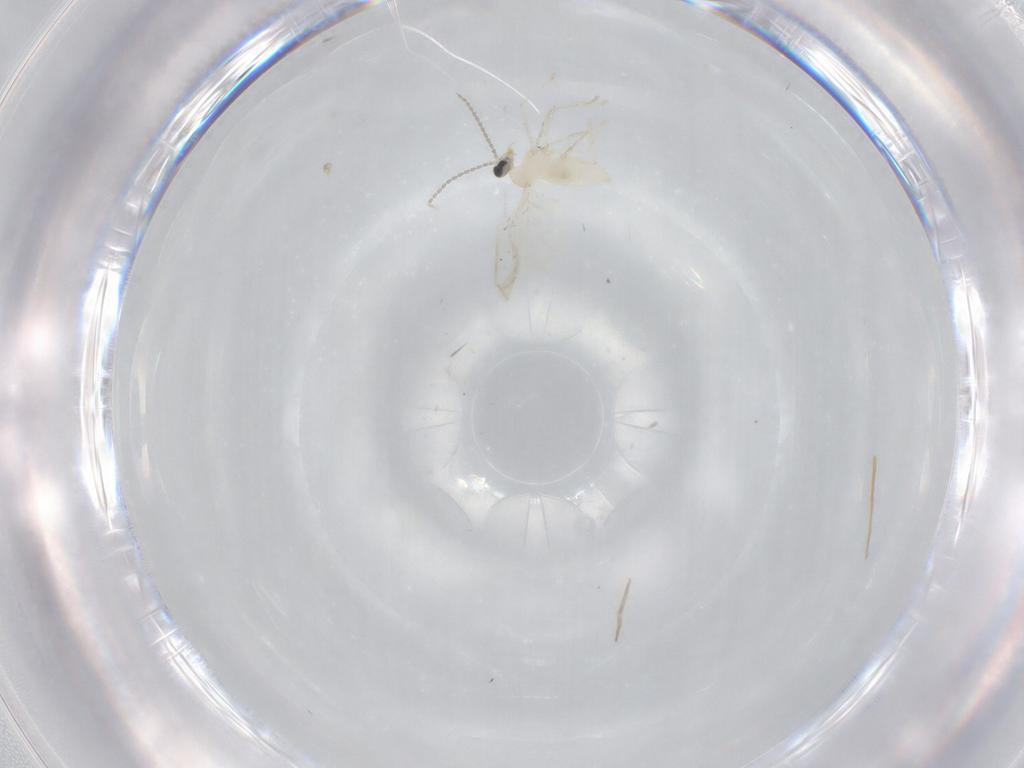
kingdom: Animalia
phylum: Arthropoda
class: Insecta
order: Diptera
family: Cecidomyiidae
